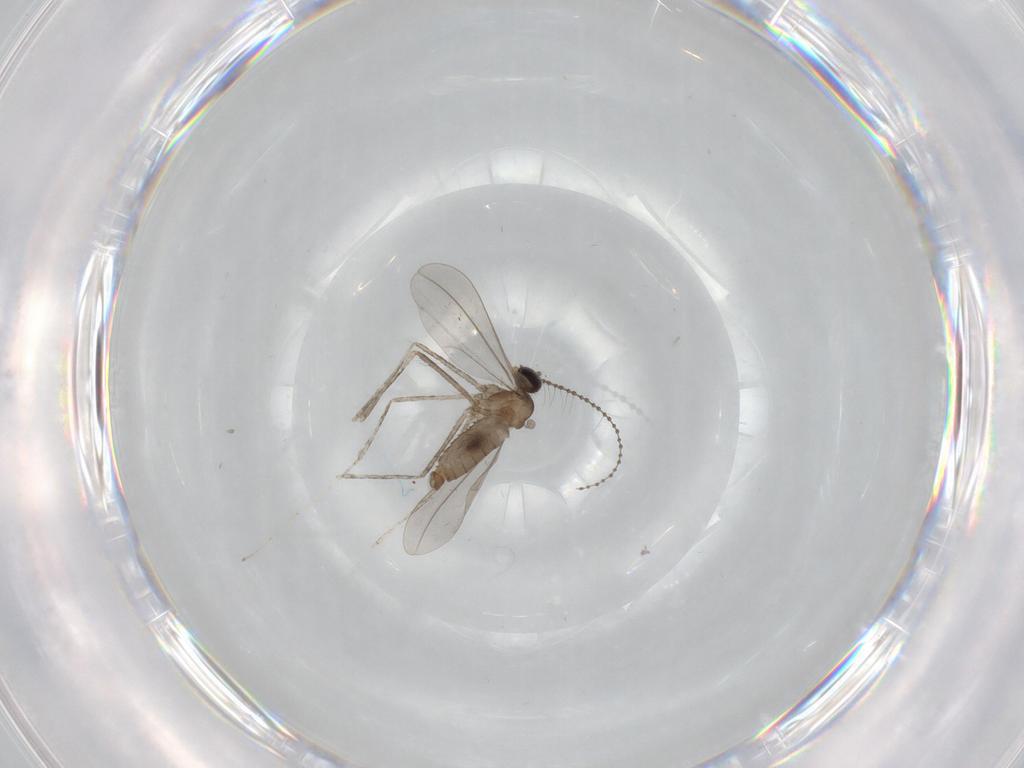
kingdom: Animalia
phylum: Arthropoda
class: Insecta
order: Diptera
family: Cecidomyiidae
